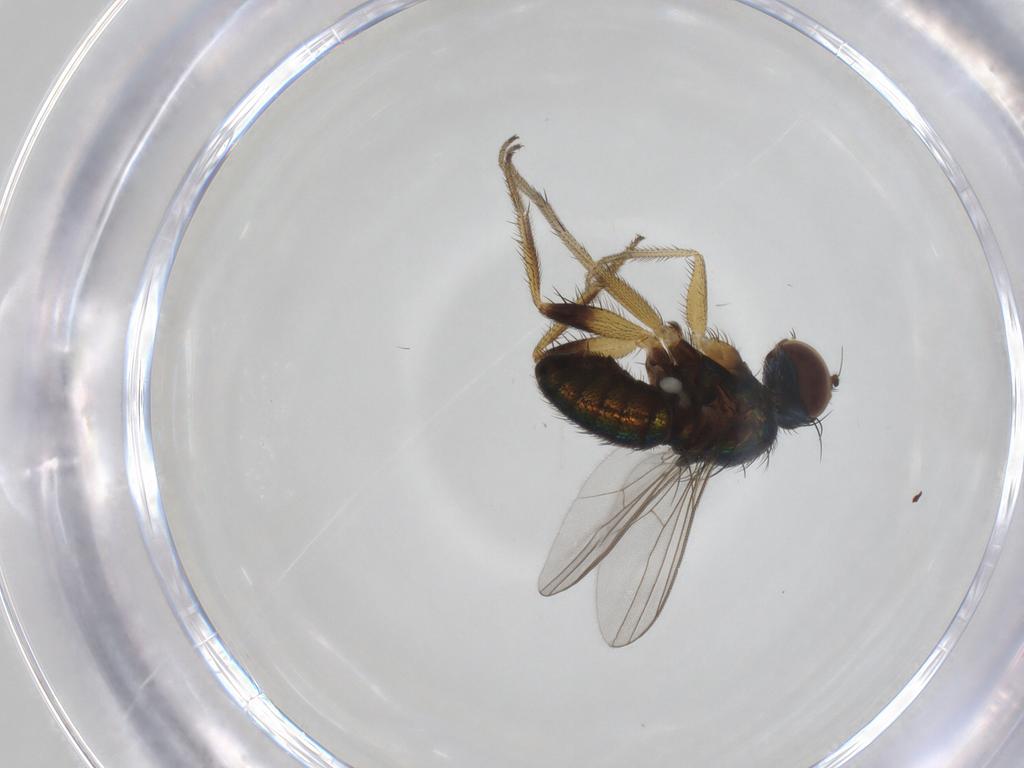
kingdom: Animalia
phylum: Arthropoda
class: Insecta
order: Diptera
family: Dolichopodidae
